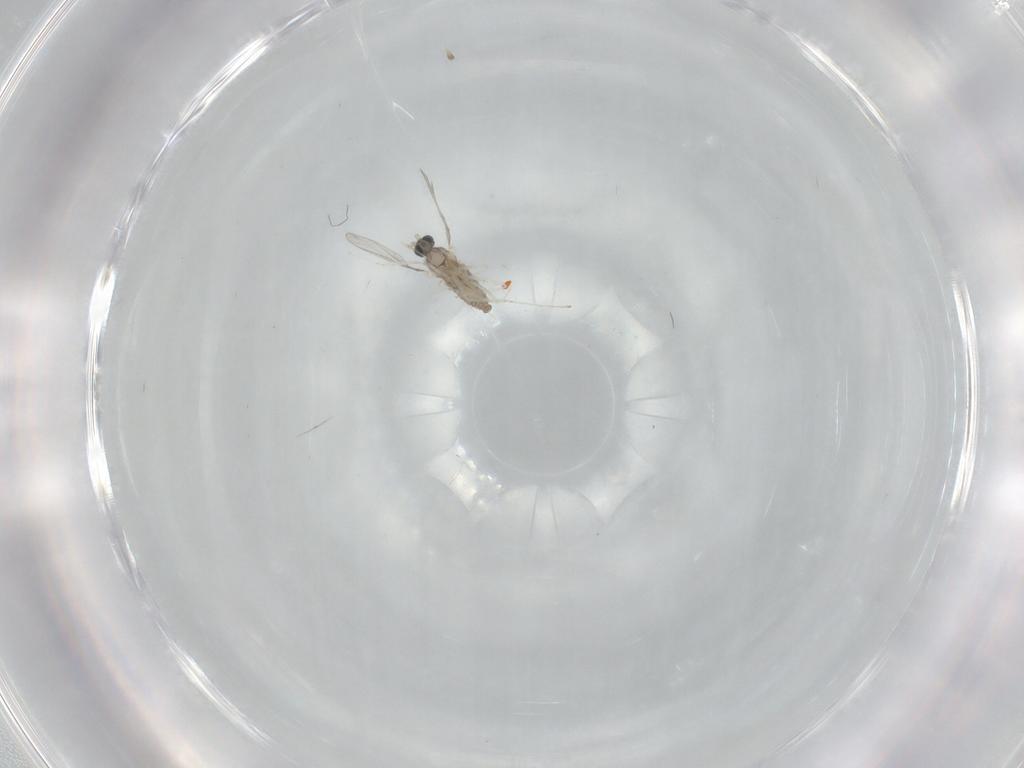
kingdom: Animalia
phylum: Arthropoda
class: Insecta
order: Diptera
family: Cecidomyiidae
